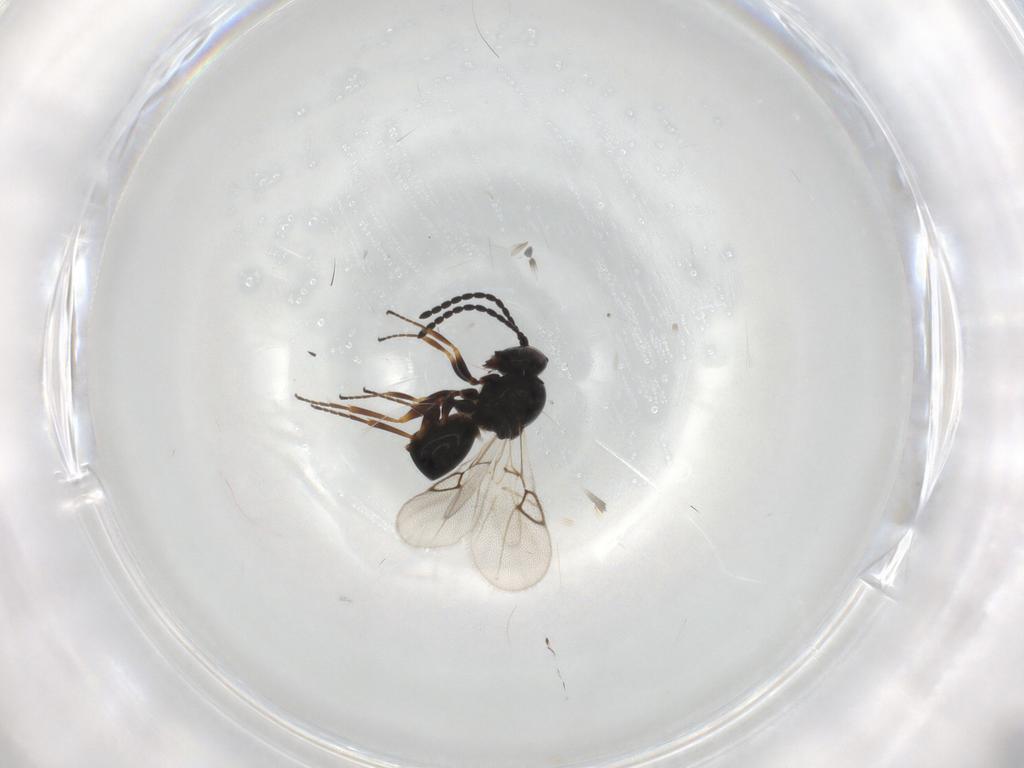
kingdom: Animalia
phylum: Arthropoda
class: Insecta
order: Hymenoptera
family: Figitidae
